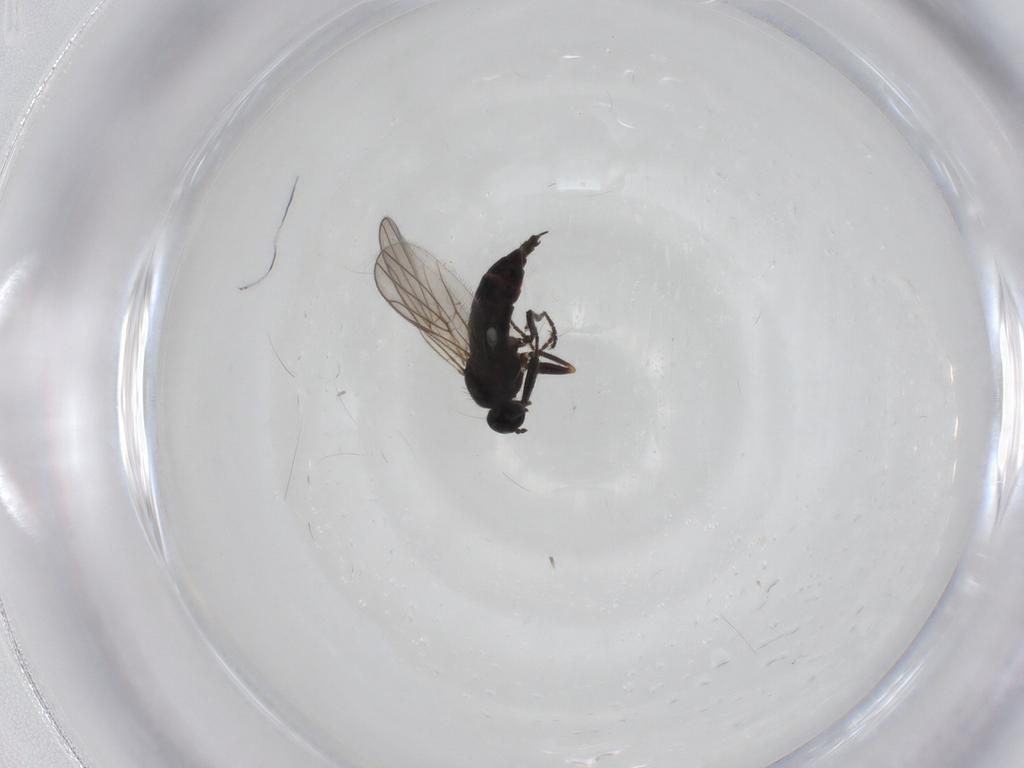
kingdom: Animalia
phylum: Arthropoda
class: Insecta
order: Diptera
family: Hybotidae
